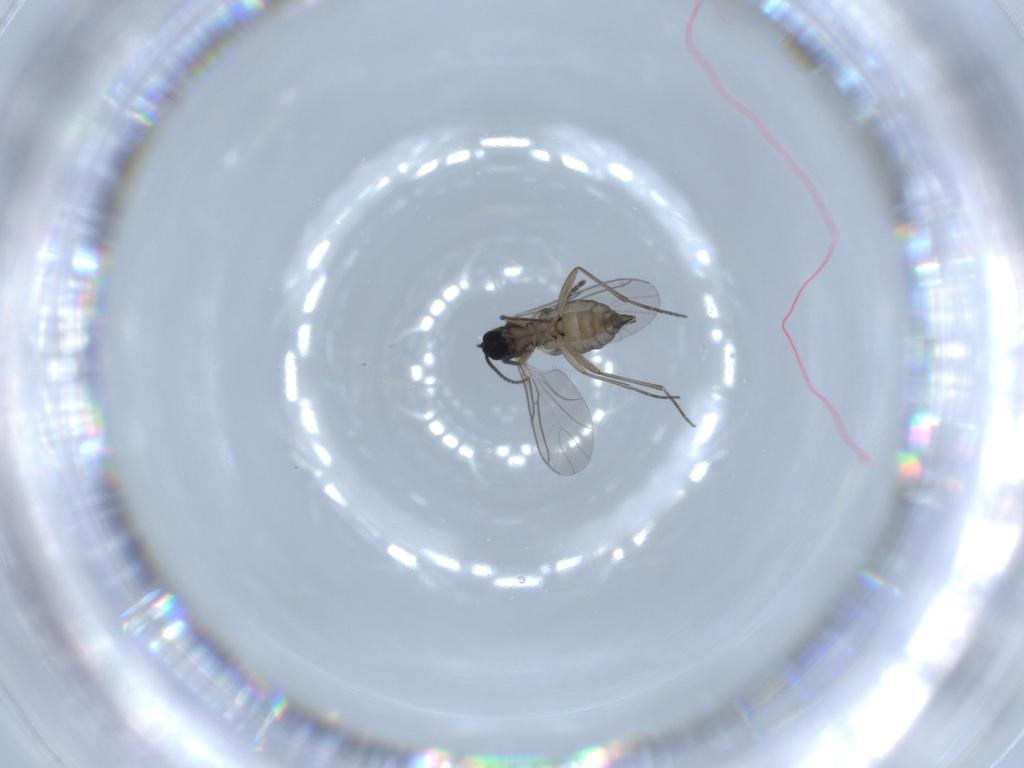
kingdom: Animalia
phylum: Arthropoda
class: Insecta
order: Diptera
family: Sciaridae
